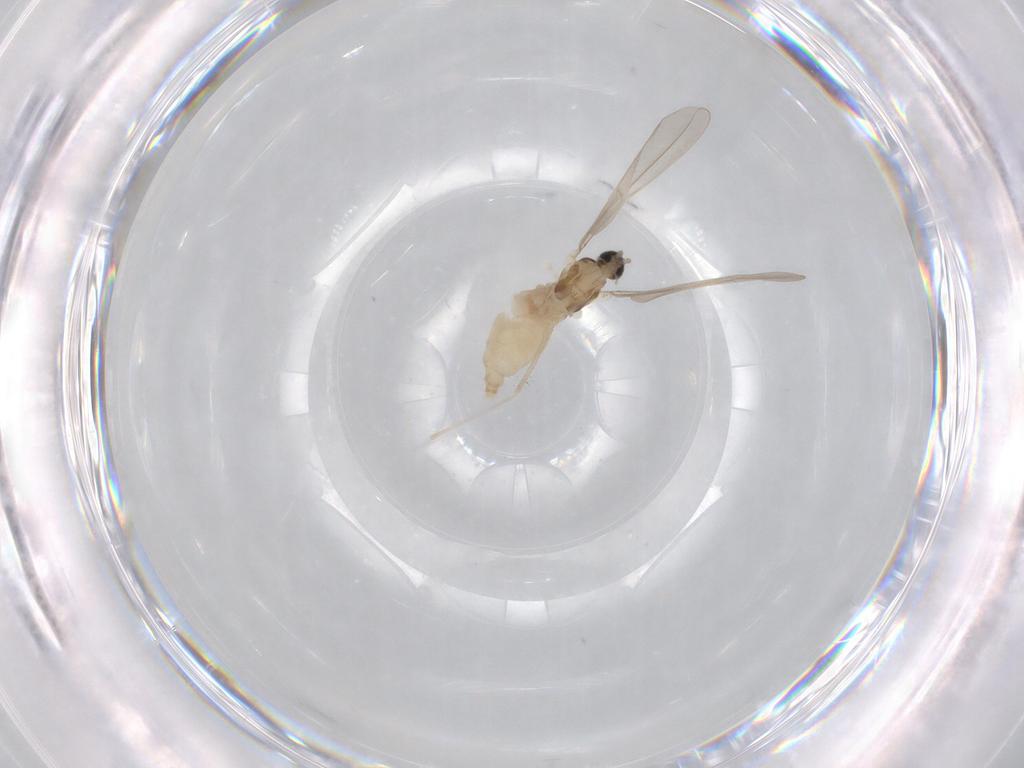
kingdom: Animalia
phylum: Arthropoda
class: Insecta
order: Diptera
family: Cecidomyiidae
